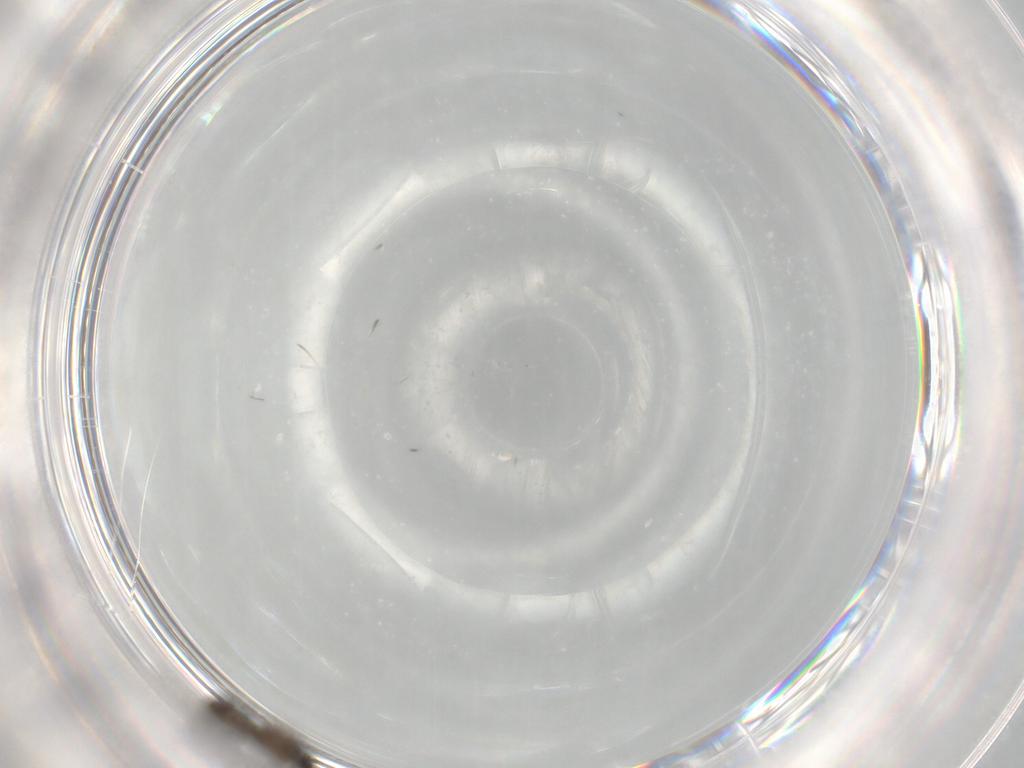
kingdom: Animalia
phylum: Arthropoda
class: Insecta
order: Diptera
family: Phoridae
